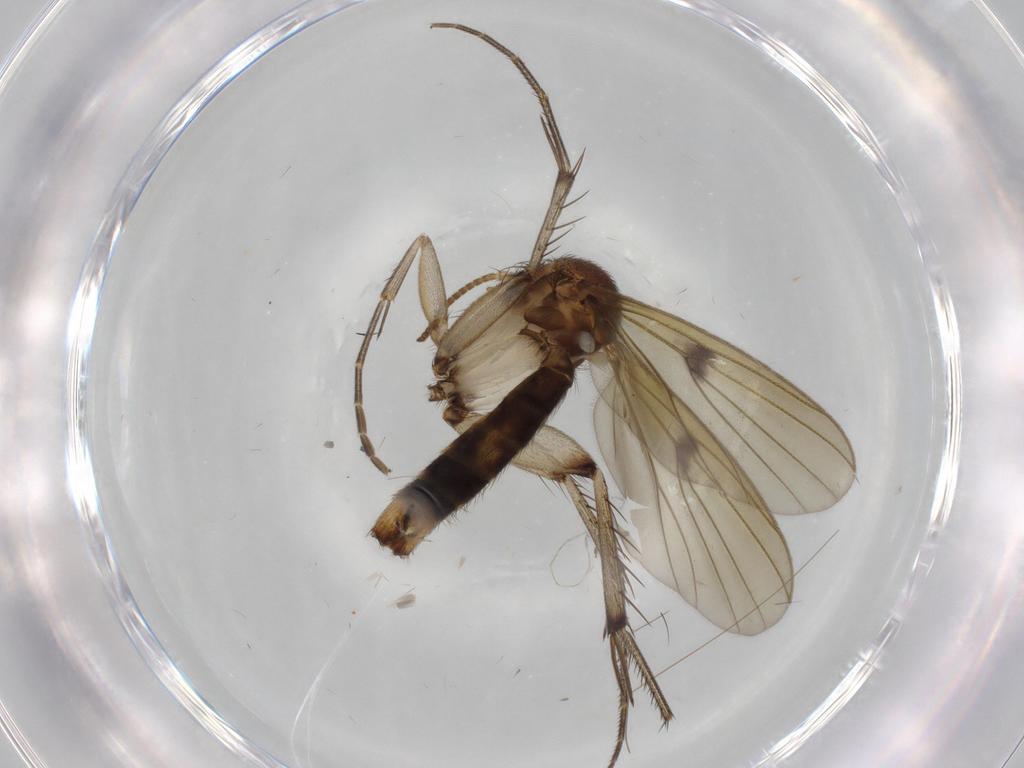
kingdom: Animalia
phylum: Arthropoda
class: Insecta
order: Diptera
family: Mycetophilidae
